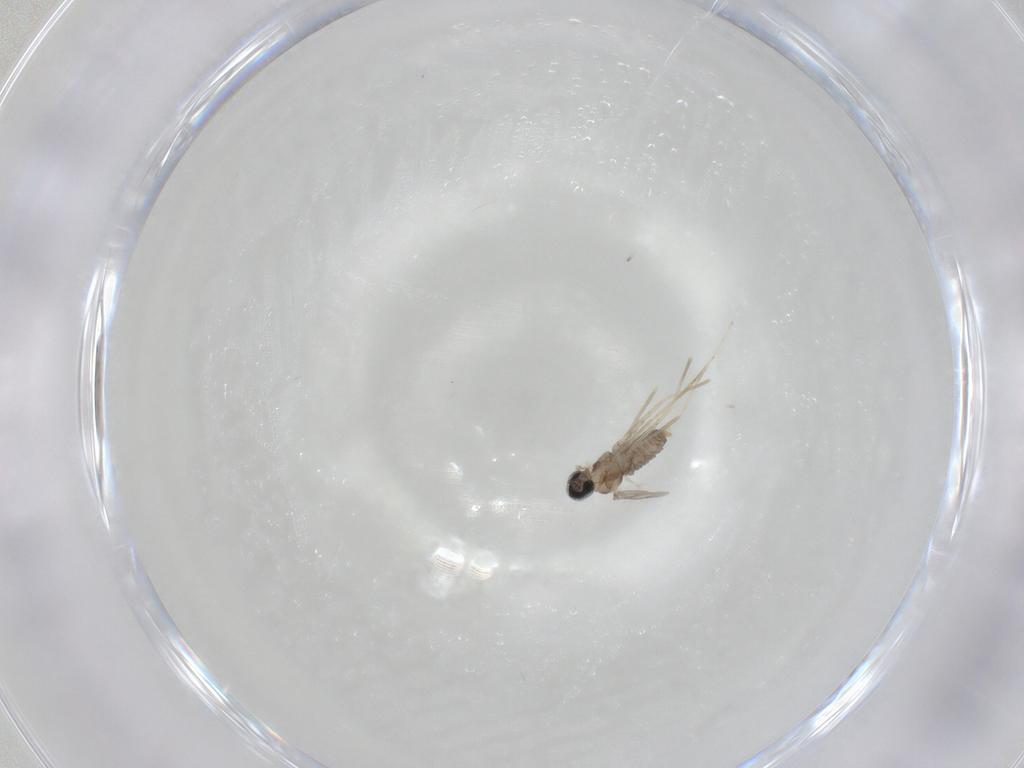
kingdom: Animalia
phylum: Arthropoda
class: Insecta
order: Diptera
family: Cecidomyiidae
